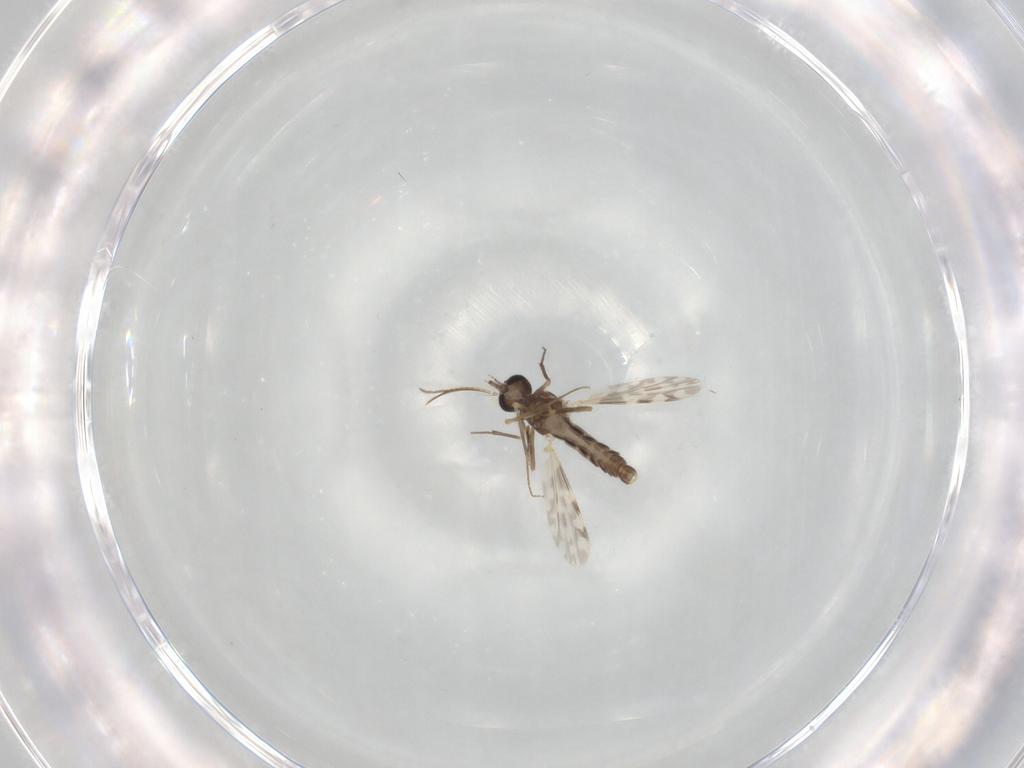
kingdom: Animalia
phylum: Arthropoda
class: Insecta
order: Diptera
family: Ceratopogonidae
